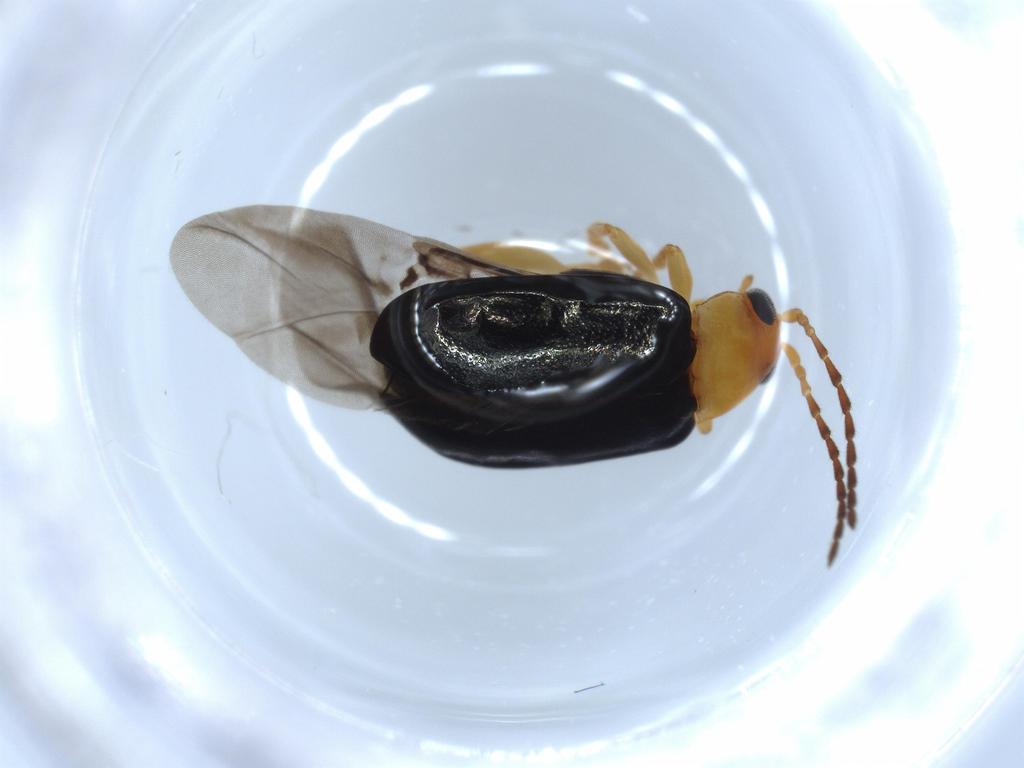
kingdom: Animalia
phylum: Arthropoda
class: Insecta
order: Coleoptera
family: Chrysomelidae
